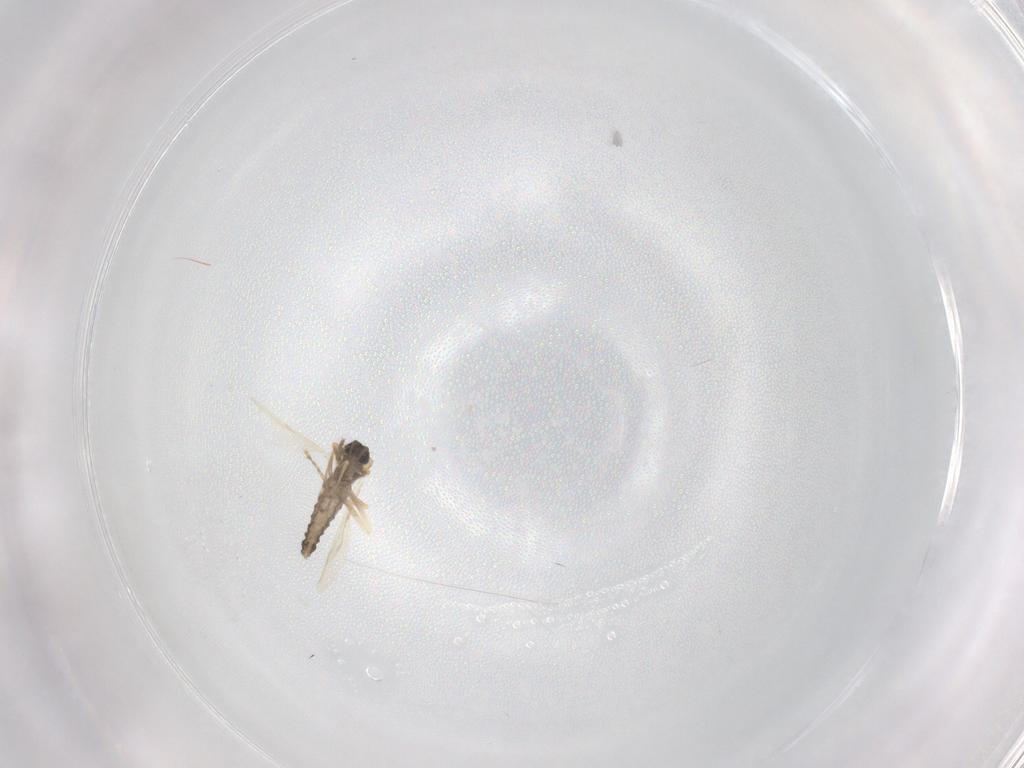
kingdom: Animalia
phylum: Arthropoda
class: Insecta
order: Diptera
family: Ceratopogonidae
